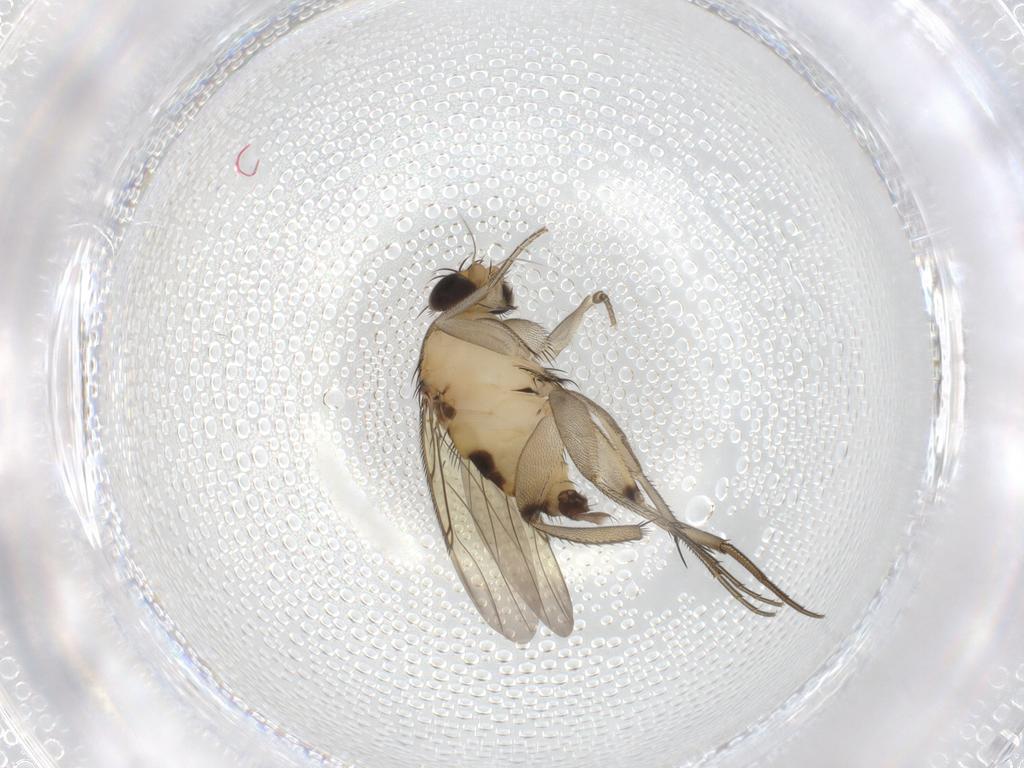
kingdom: Animalia
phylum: Arthropoda
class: Insecta
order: Diptera
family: Phoridae
